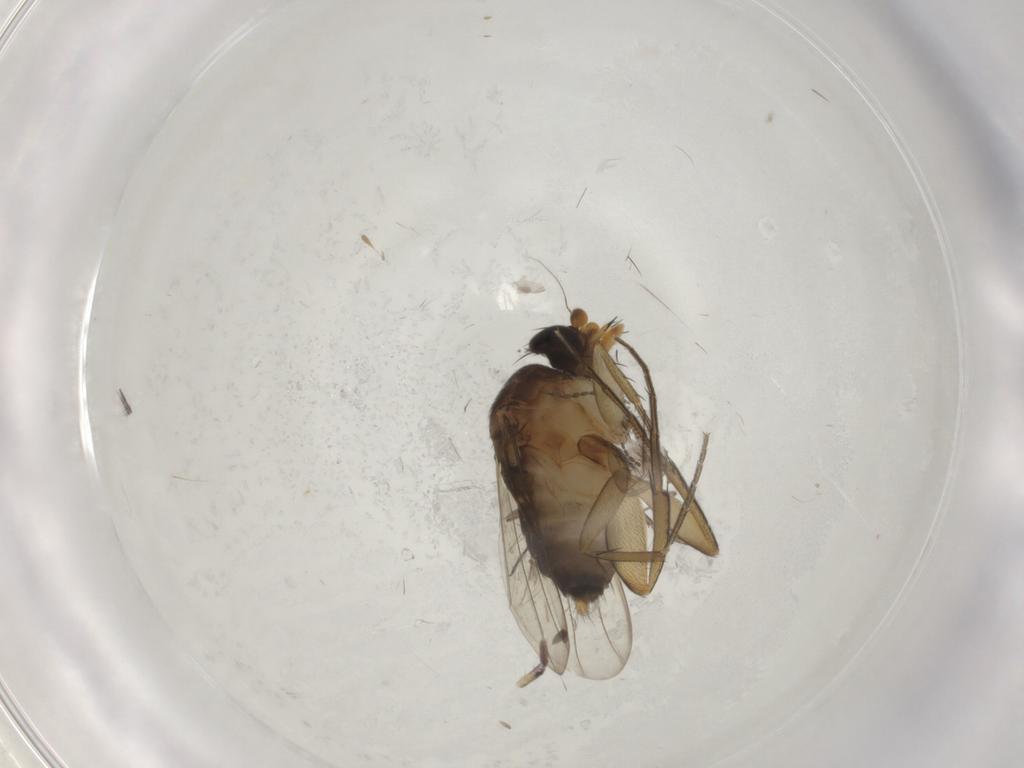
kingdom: Animalia
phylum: Arthropoda
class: Insecta
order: Diptera
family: Phoridae
